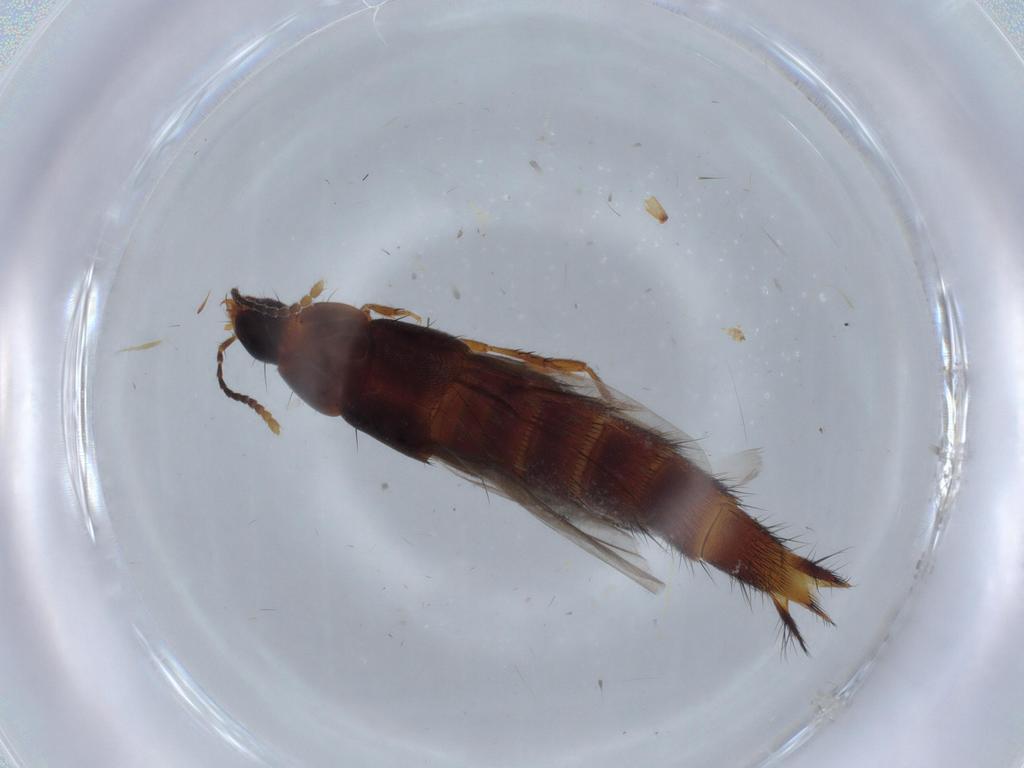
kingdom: Animalia
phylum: Arthropoda
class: Insecta
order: Coleoptera
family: Staphylinidae
